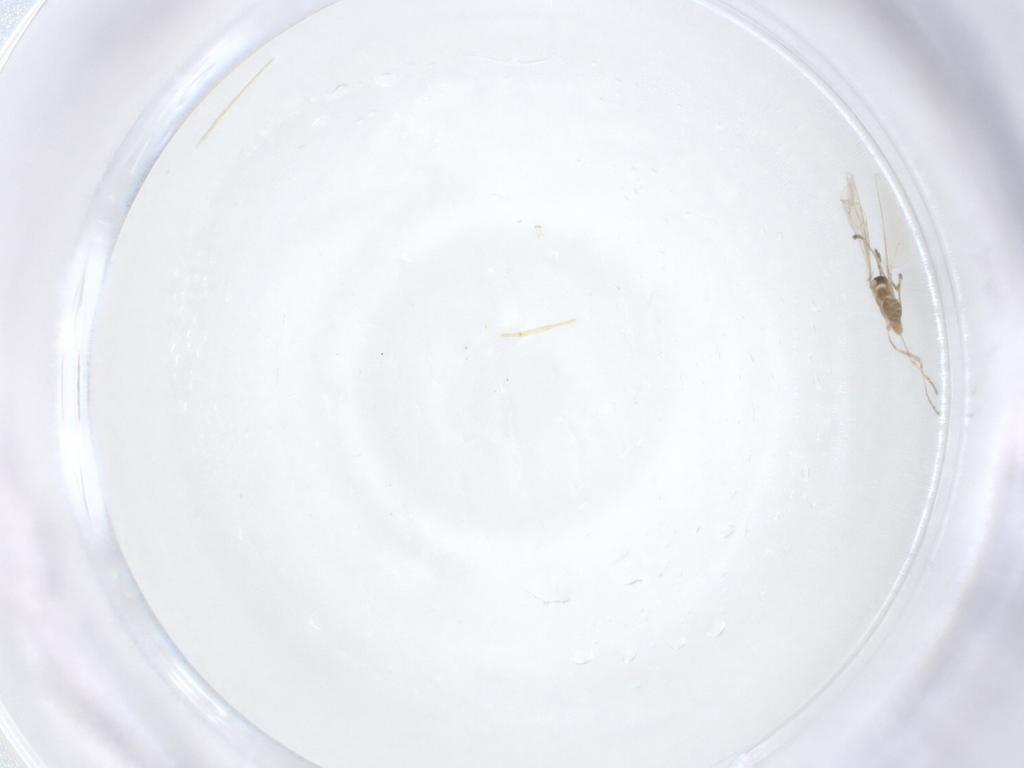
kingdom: Animalia
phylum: Arthropoda
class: Insecta
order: Diptera
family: Cecidomyiidae
